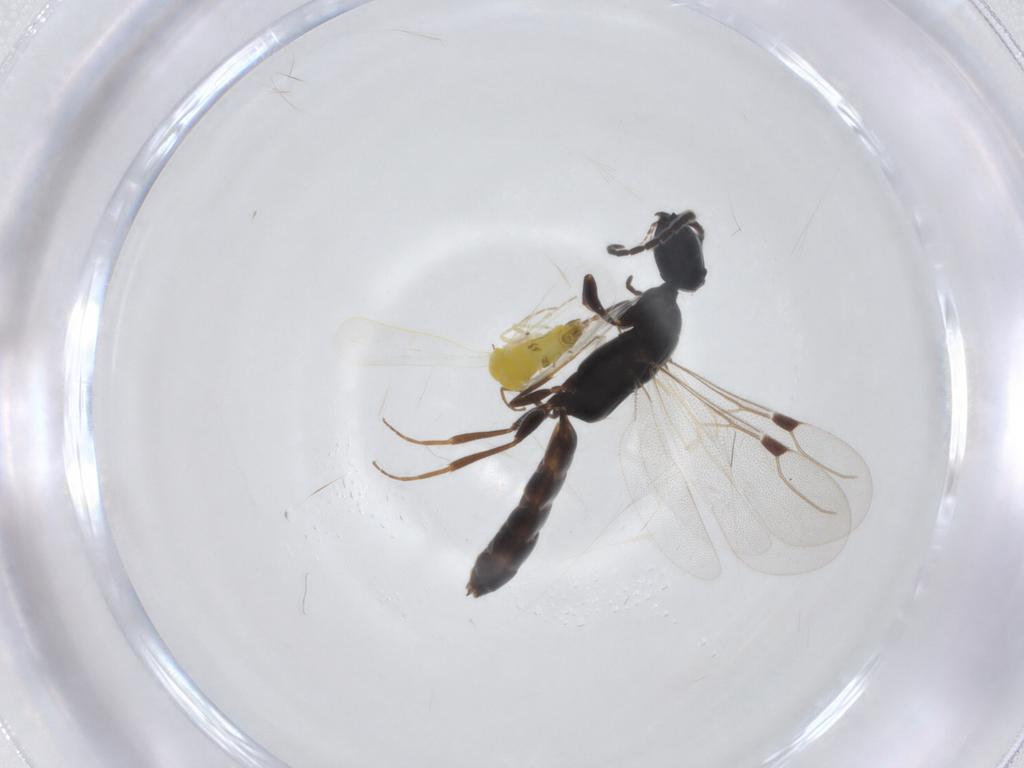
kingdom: Animalia
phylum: Arthropoda
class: Insecta
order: Hymenoptera
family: Bethylidae
